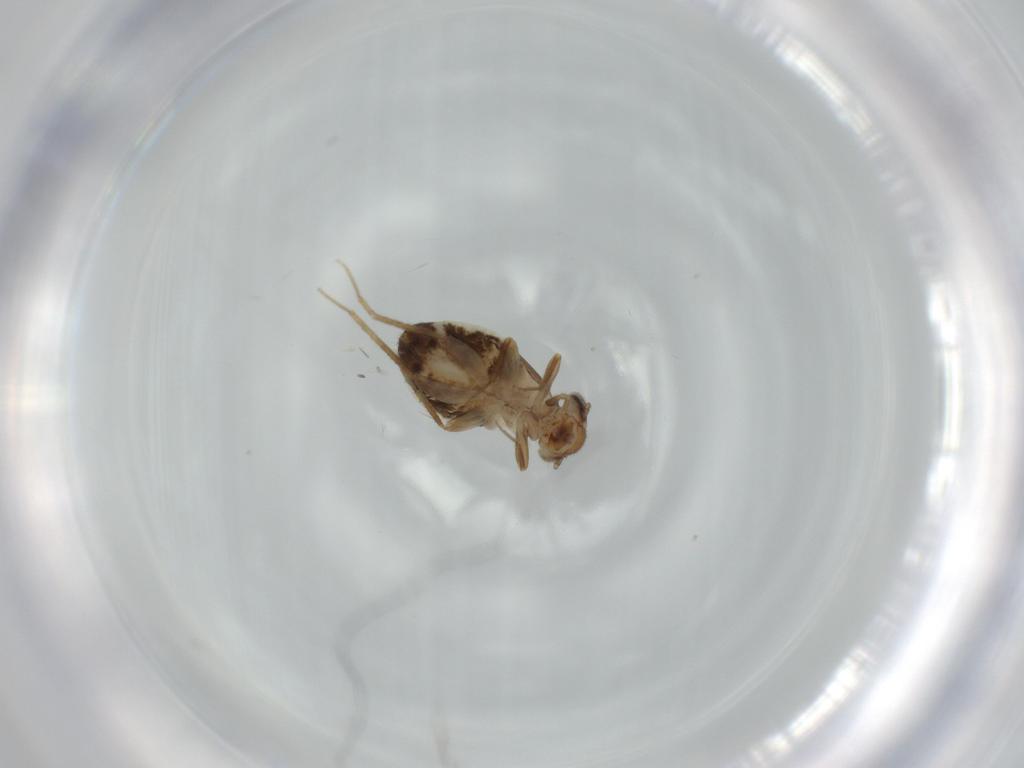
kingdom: Animalia
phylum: Arthropoda
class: Insecta
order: Psocodea
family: Ectopsocidae
